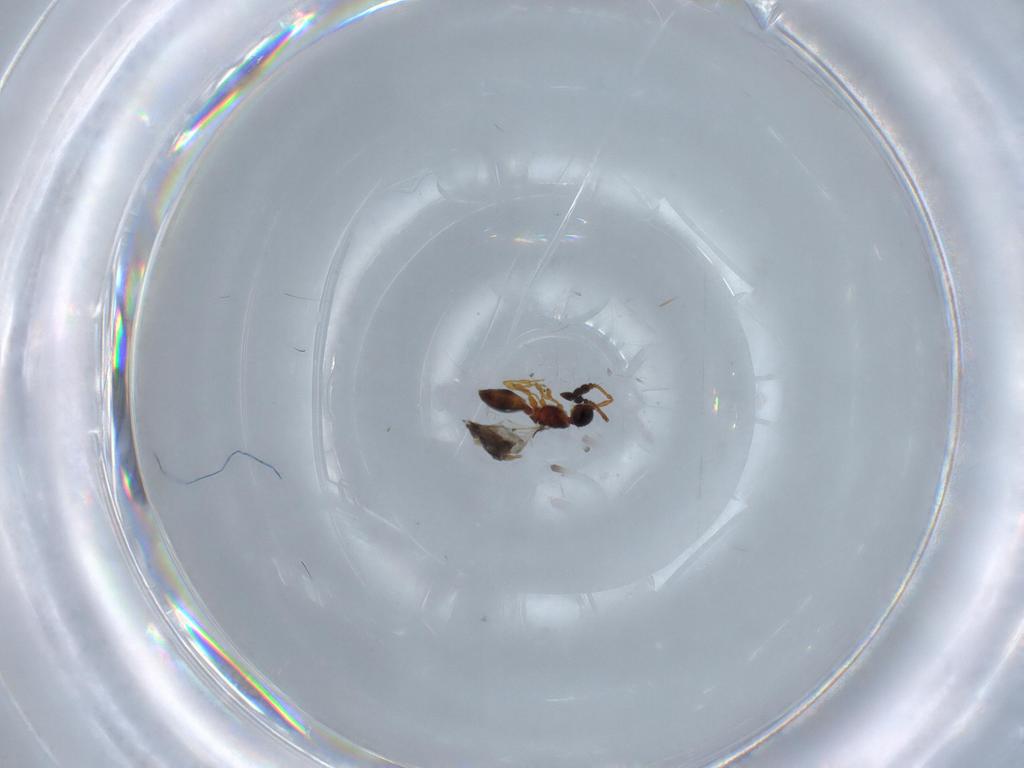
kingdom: Animalia
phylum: Arthropoda
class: Insecta
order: Hymenoptera
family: Diapriidae
